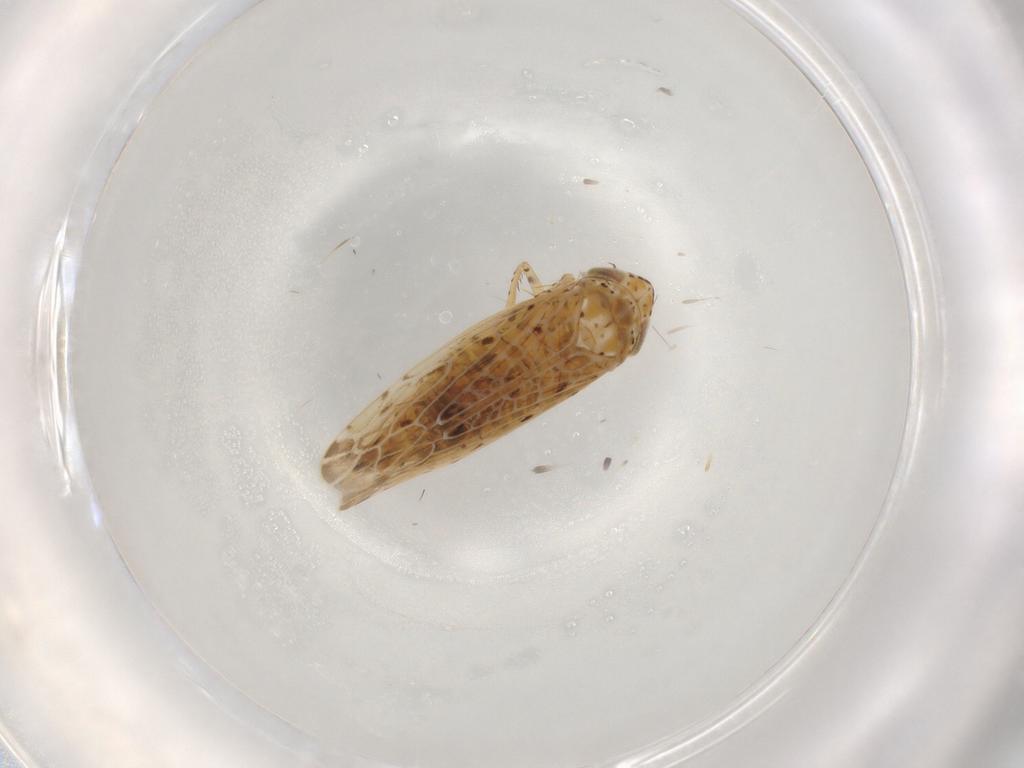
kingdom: Animalia
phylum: Arthropoda
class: Insecta
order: Hemiptera
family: Cicadellidae
